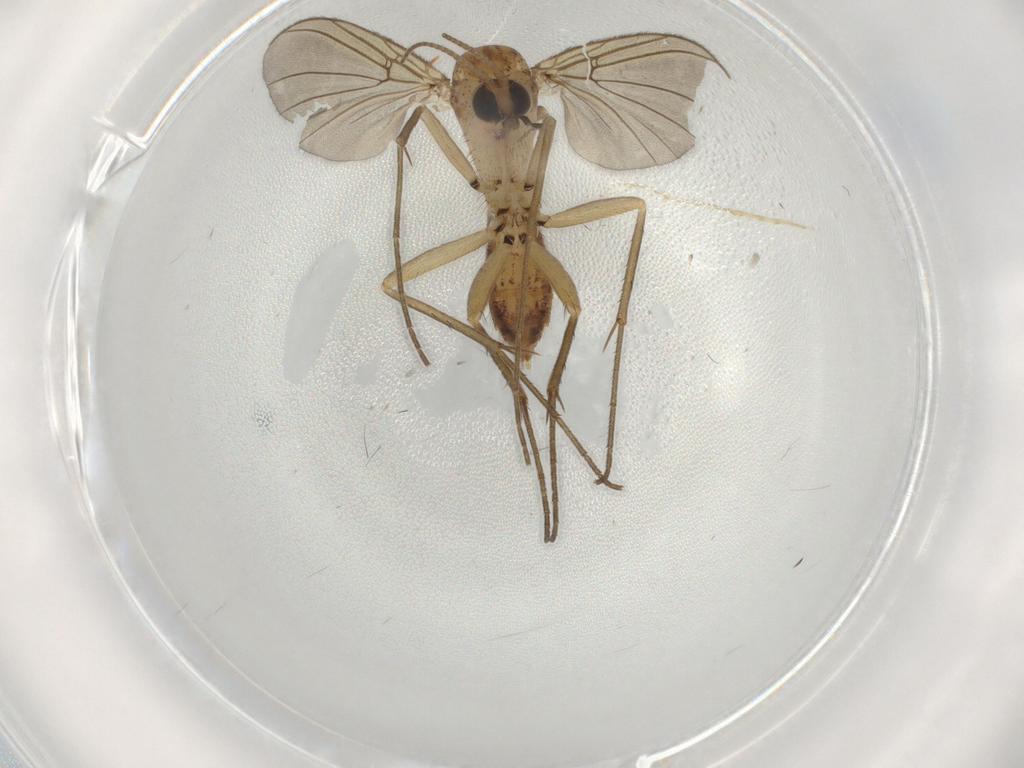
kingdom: Animalia
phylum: Arthropoda
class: Insecta
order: Diptera
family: Mycetophilidae
